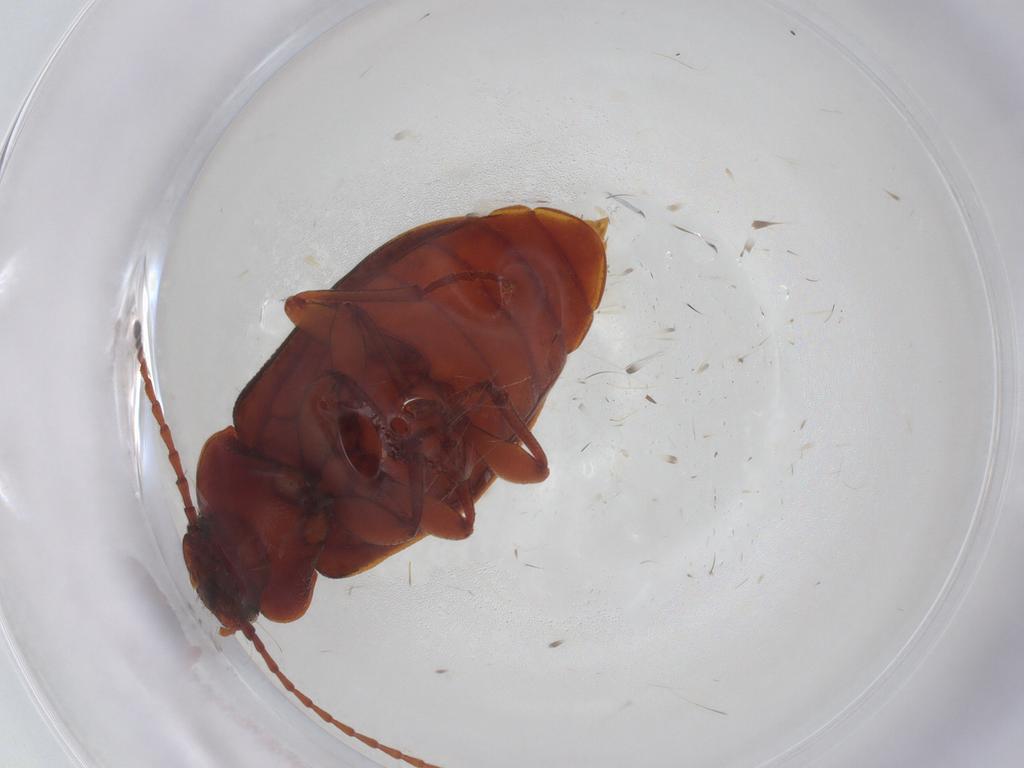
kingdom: Animalia
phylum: Arthropoda
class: Insecta
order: Coleoptera
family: Tenebrionidae
